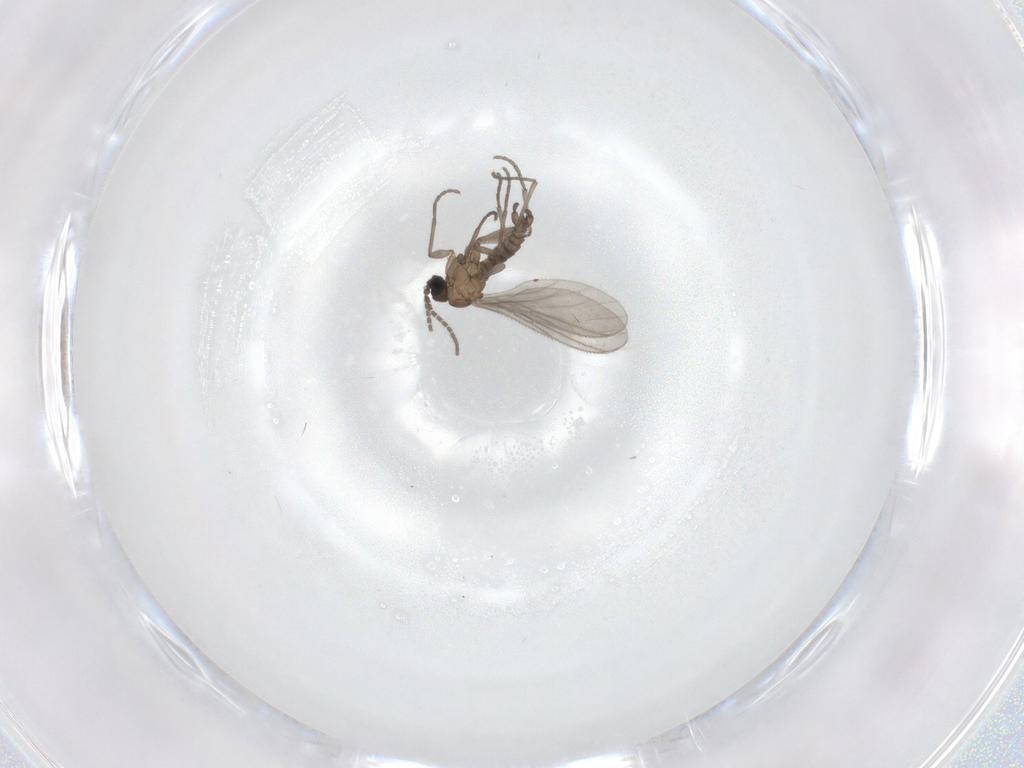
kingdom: Animalia
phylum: Arthropoda
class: Insecta
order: Diptera
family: Sciaridae
